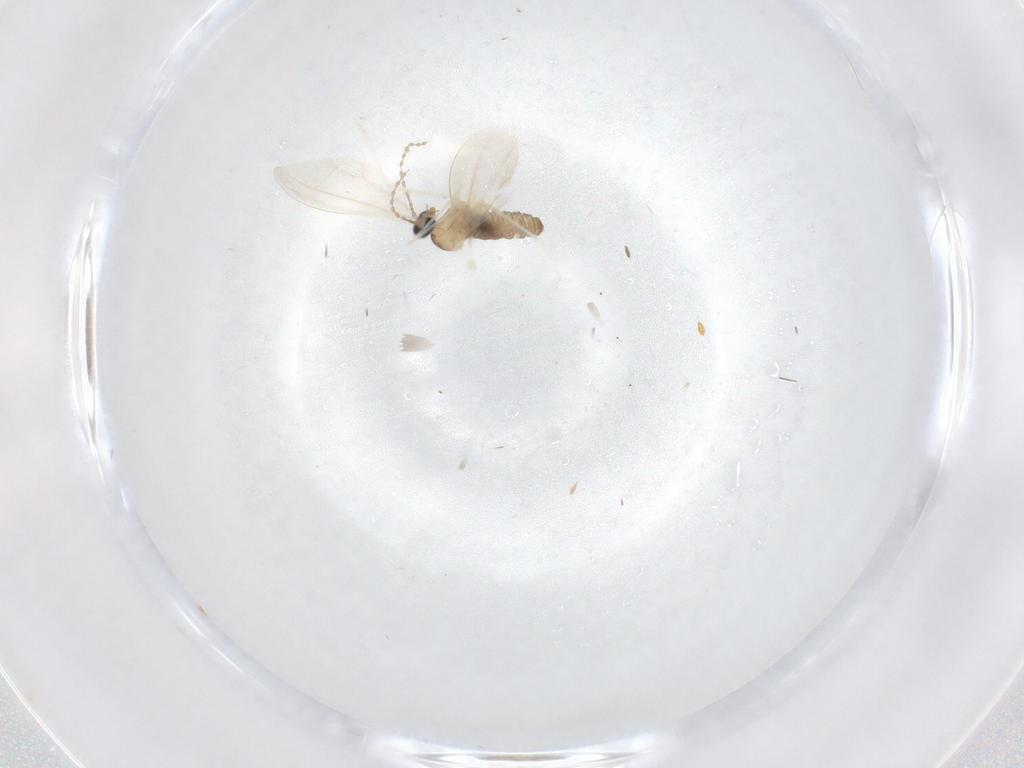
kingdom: Animalia
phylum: Arthropoda
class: Insecta
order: Diptera
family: Cecidomyiidae
